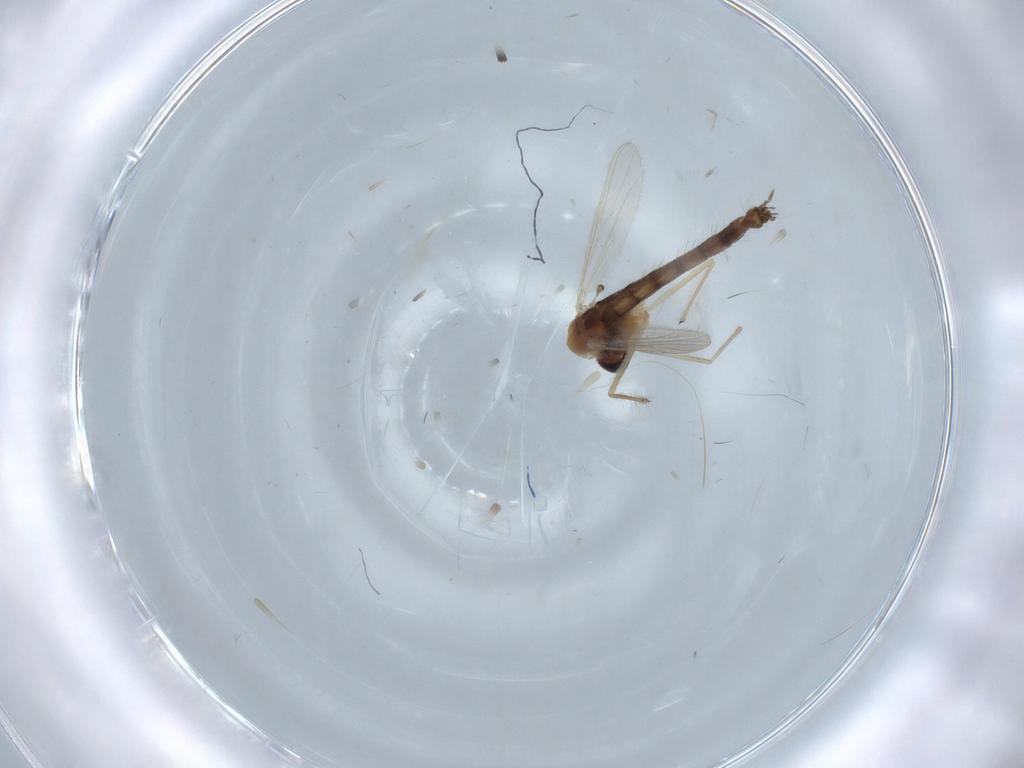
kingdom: Animalia
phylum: Arthropoda
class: Insecta
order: Diptera
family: Chironomidae
